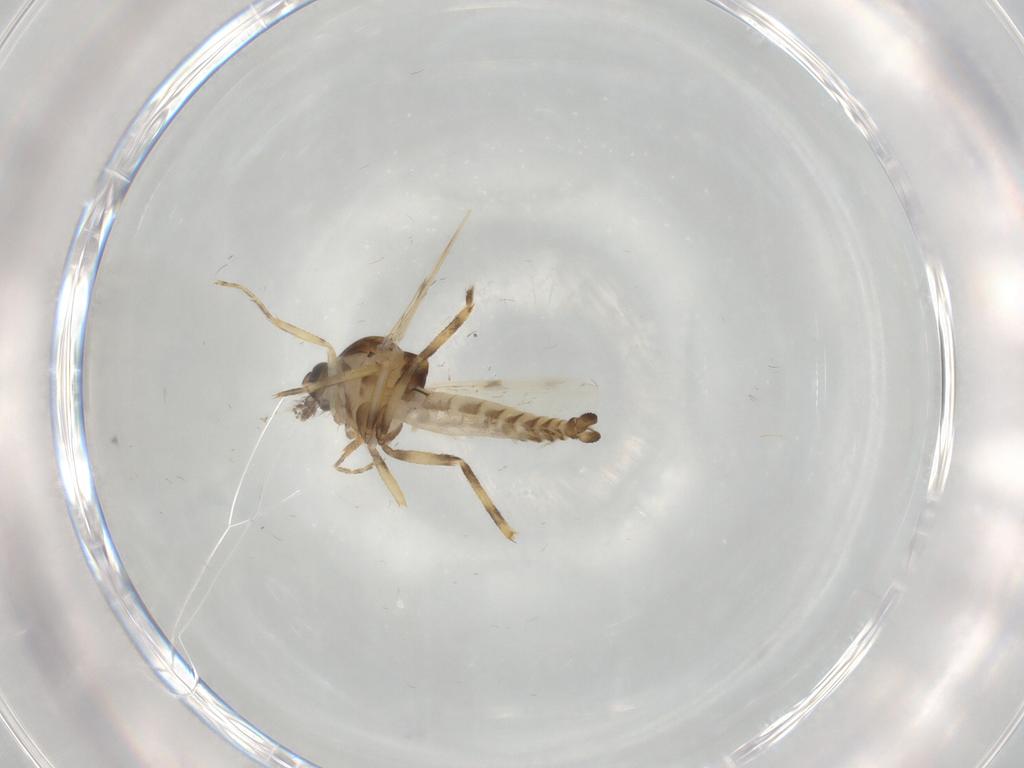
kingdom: Animalia
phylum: Arthropoda
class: Insecta
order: Diptera
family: Ceratopogonidae
